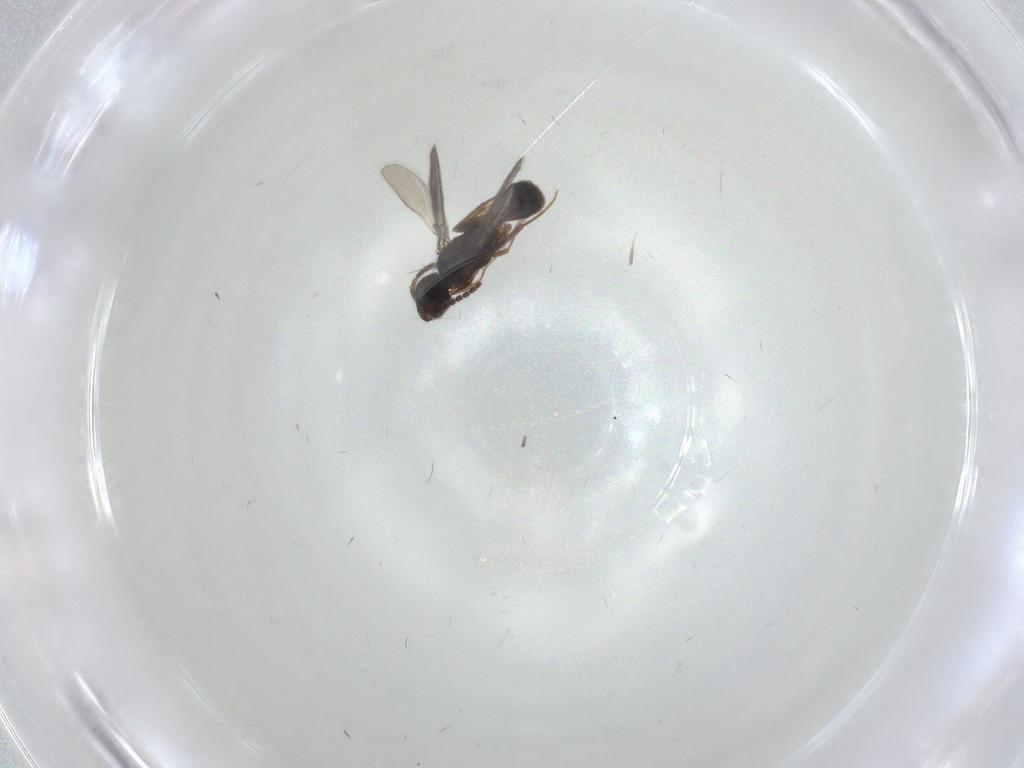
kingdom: Animalia
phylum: Arthropoda
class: Insecta
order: Hymenoptera
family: Bethylidae
